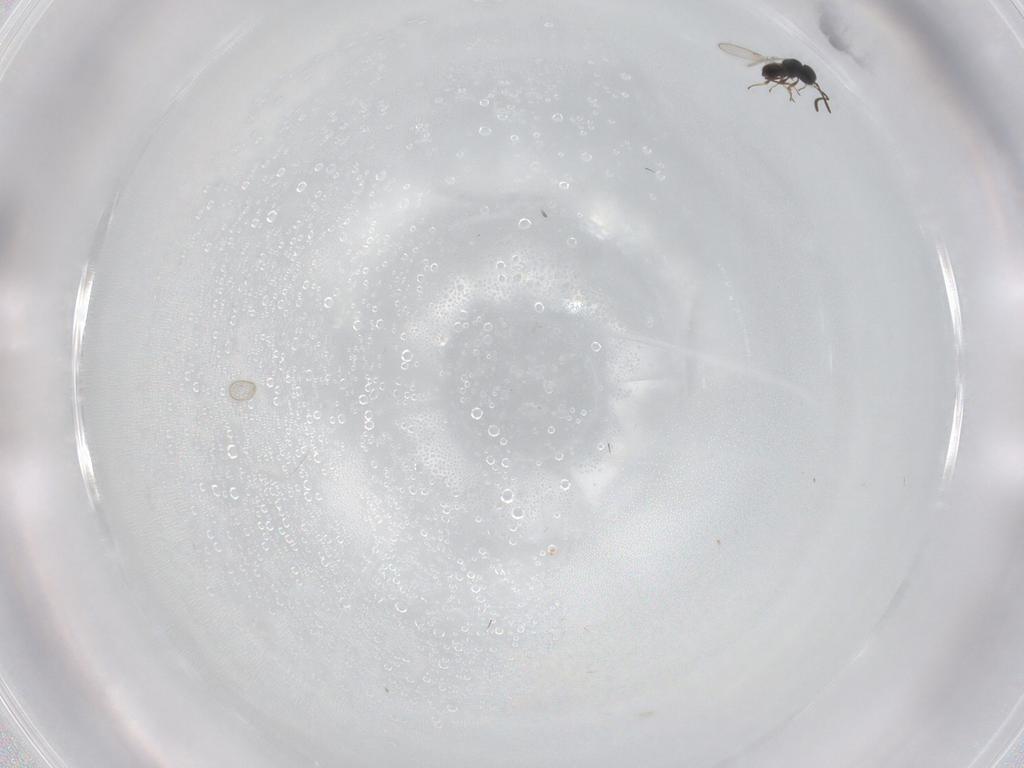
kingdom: Animalia
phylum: Arthropoda
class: Insecta
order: Hymenoptera
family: Scelionidae
